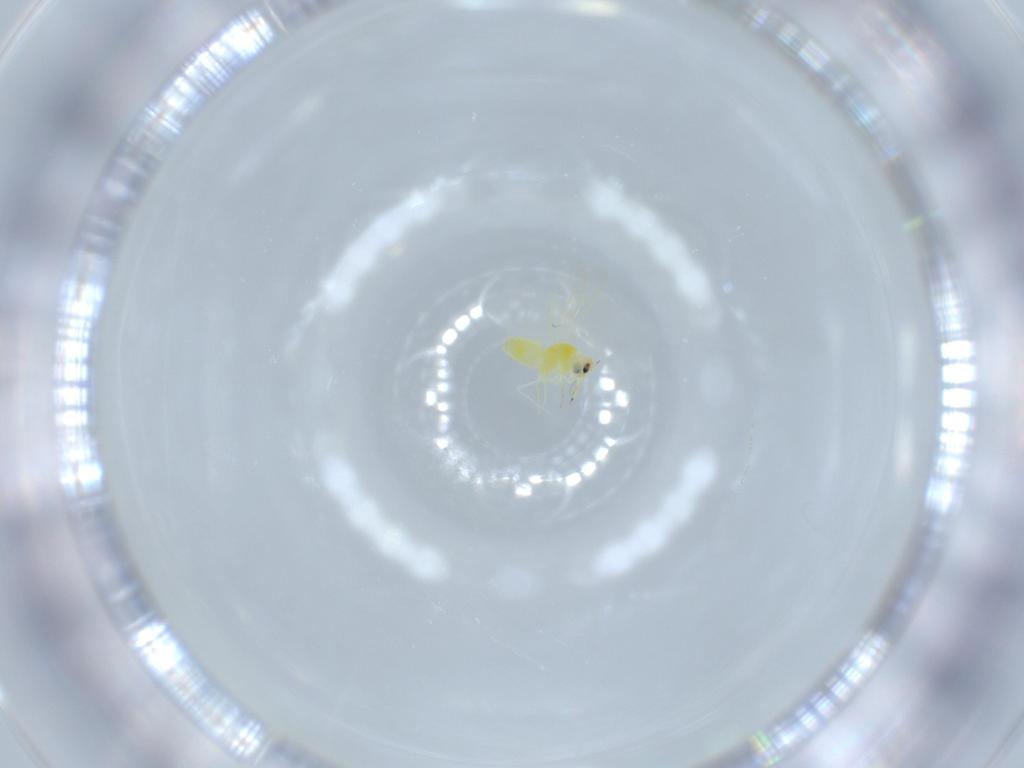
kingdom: Animalia
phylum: Arthropoda
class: Insecta
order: Hemiptera
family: Aleyrodidae
